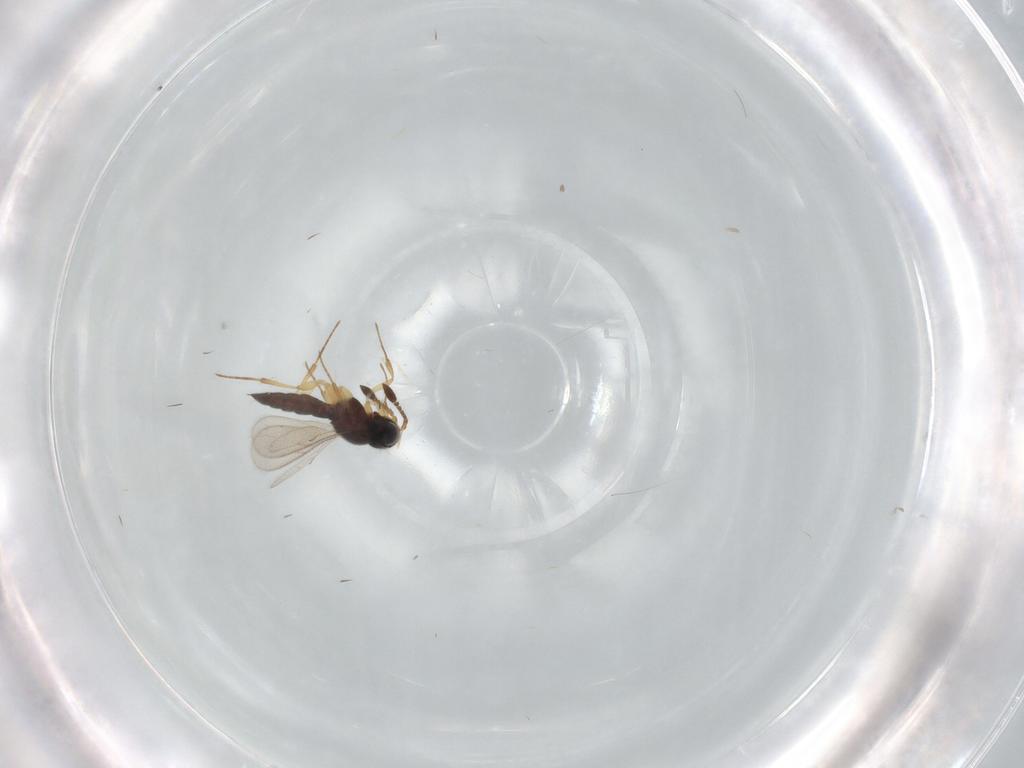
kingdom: Animalia
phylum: Arthropoda
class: Insecta
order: Hymenoptera
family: Scelionidae
